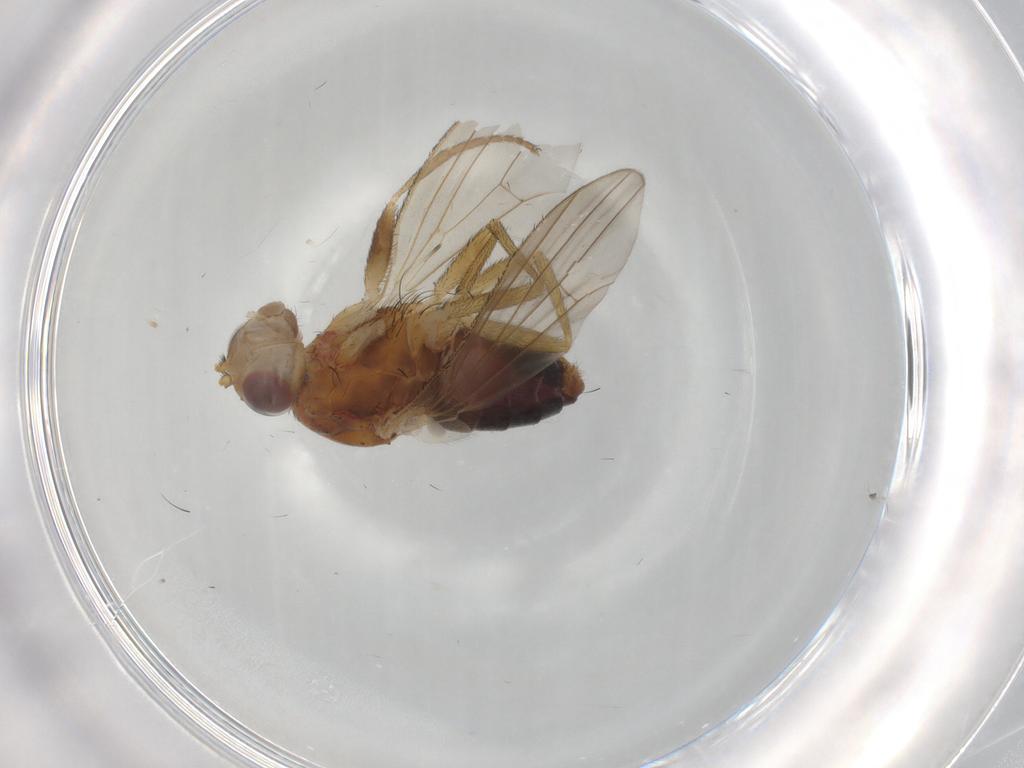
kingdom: Animalia
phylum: Arthropoda
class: Insecta
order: Diptera
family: Heleomyzidae
